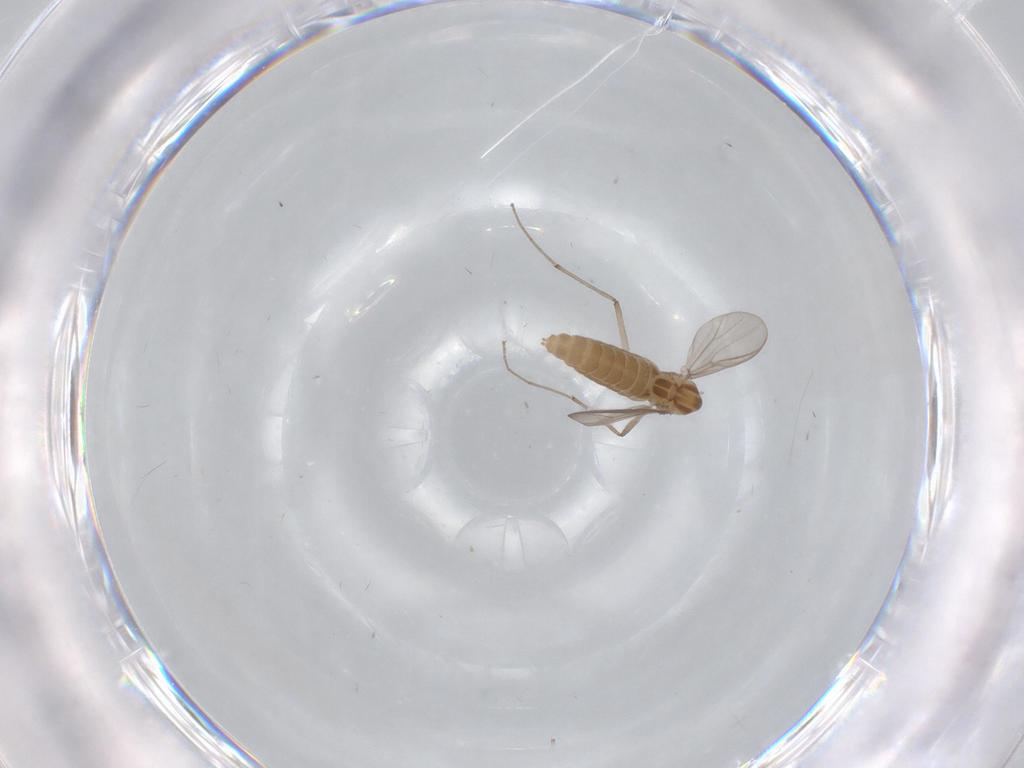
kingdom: Animalia
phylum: Arthropoda
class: Insecta
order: Diptera
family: Chironomidae
